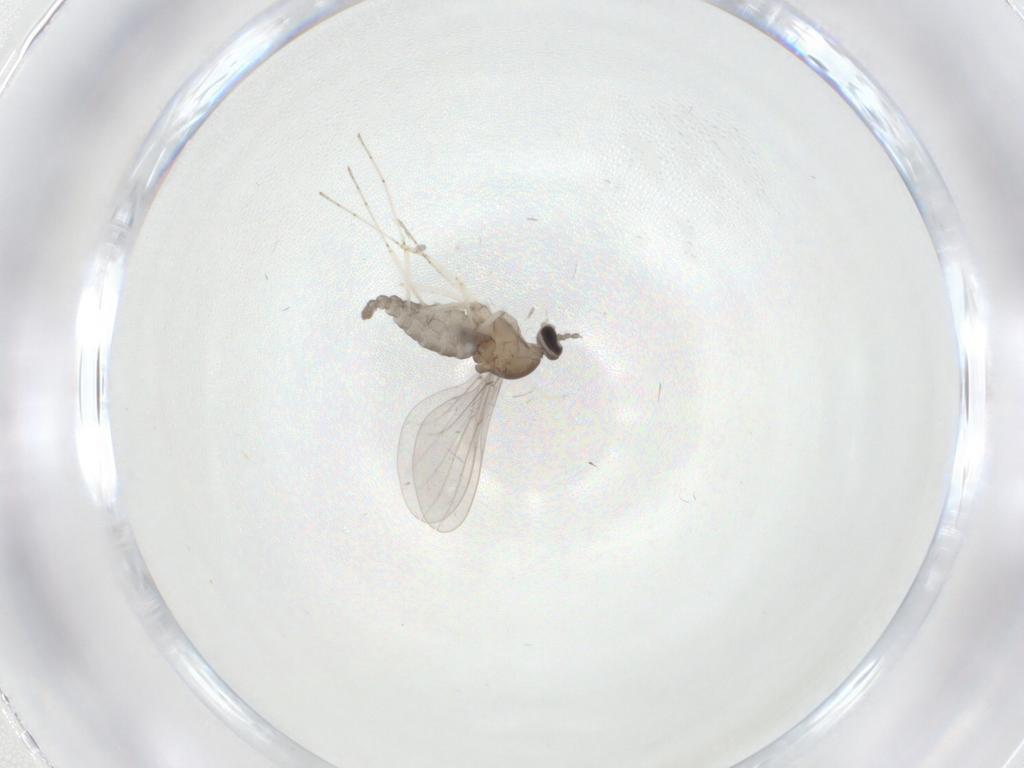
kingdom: Animalia
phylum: Arthropoda
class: Insecta
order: Diptera
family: Cecidomyiidae
